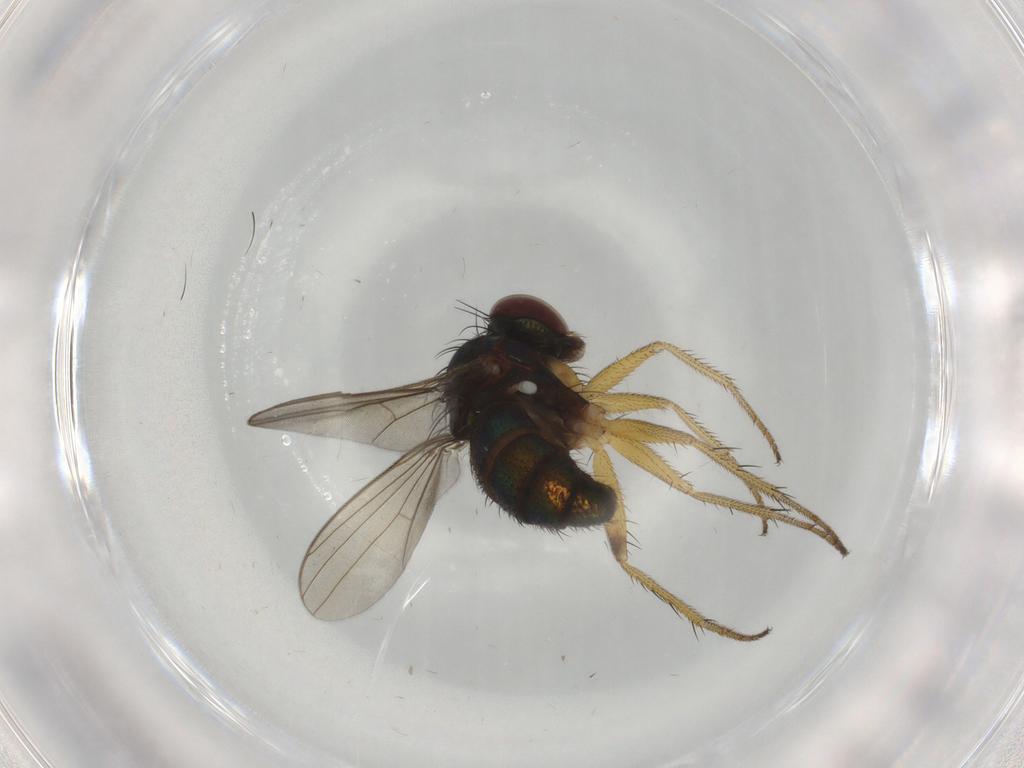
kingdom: Animalia
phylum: Arthropoda
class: Insecta
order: Diptera
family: Dolichopodidae
